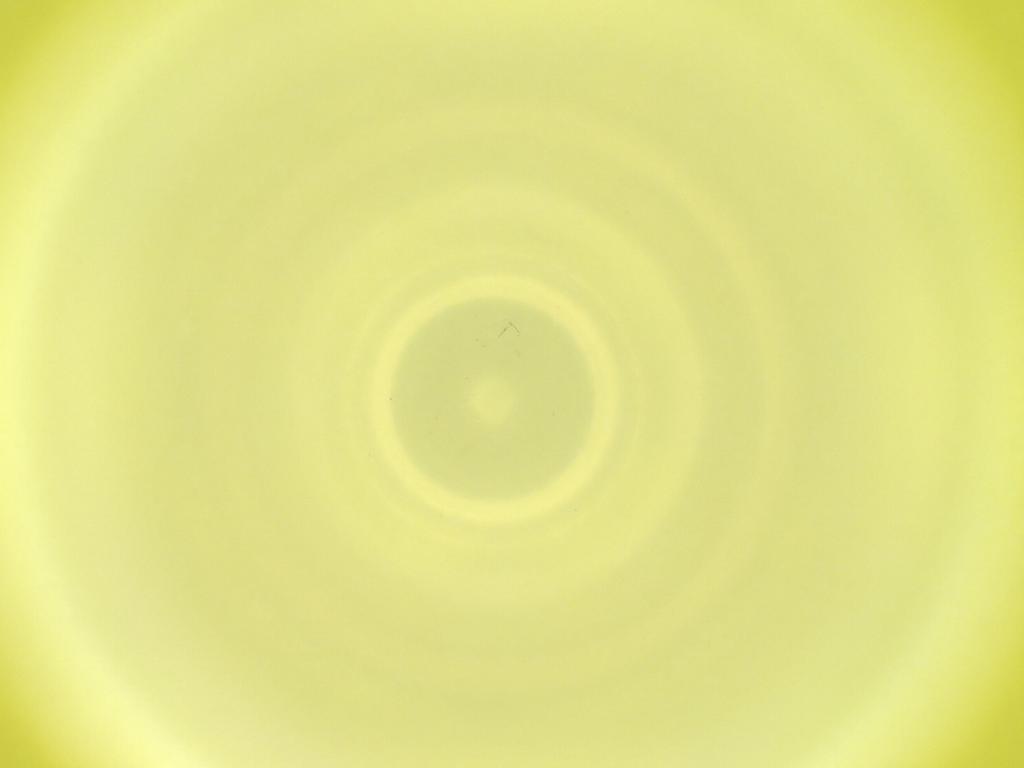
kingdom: Animalia
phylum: Arthropoda
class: Insecta
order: Diptera
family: Cecidomyiidae
